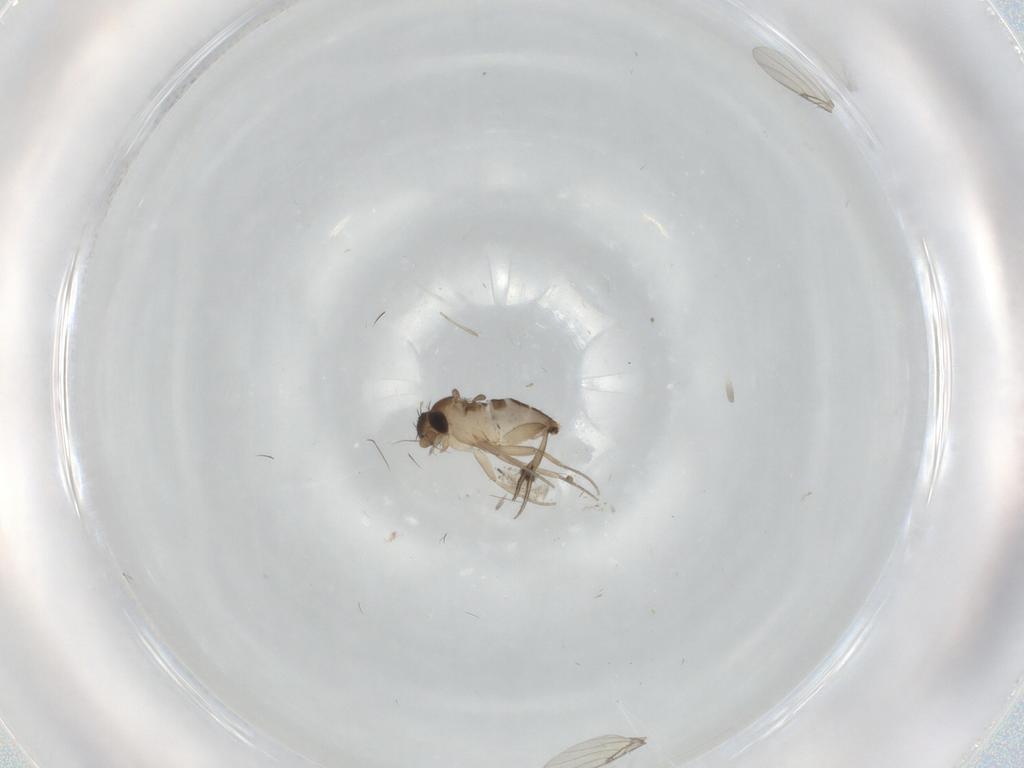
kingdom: Animalia
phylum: Arthropoda
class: Insecta
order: Diptera
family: Phoridae
